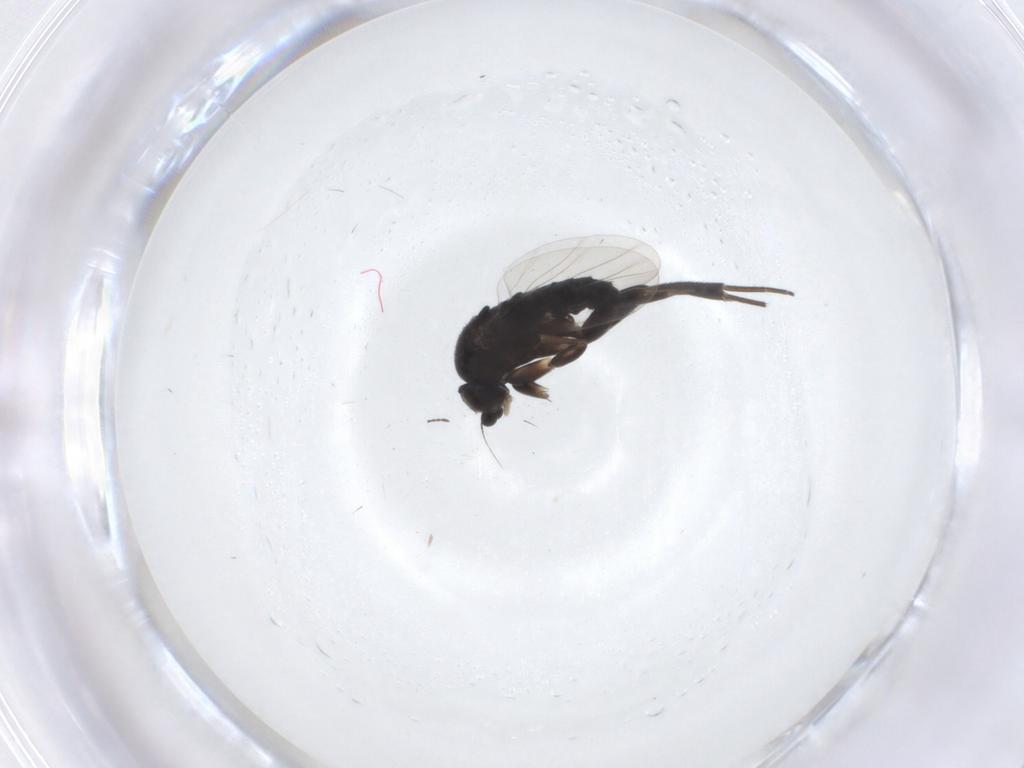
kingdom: Animalia
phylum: Arthropoda
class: Insecta
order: Diptera
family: Phoridae
